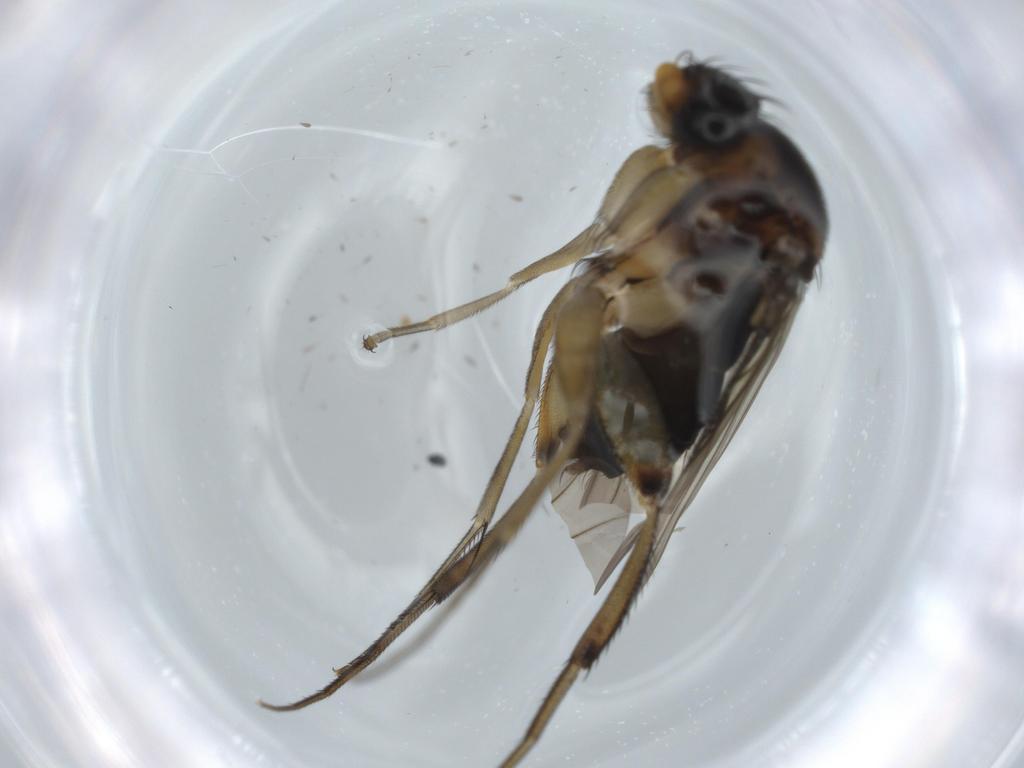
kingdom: Animalia
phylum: Arthropoda
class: Insecta
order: Diptera
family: Phoridae
